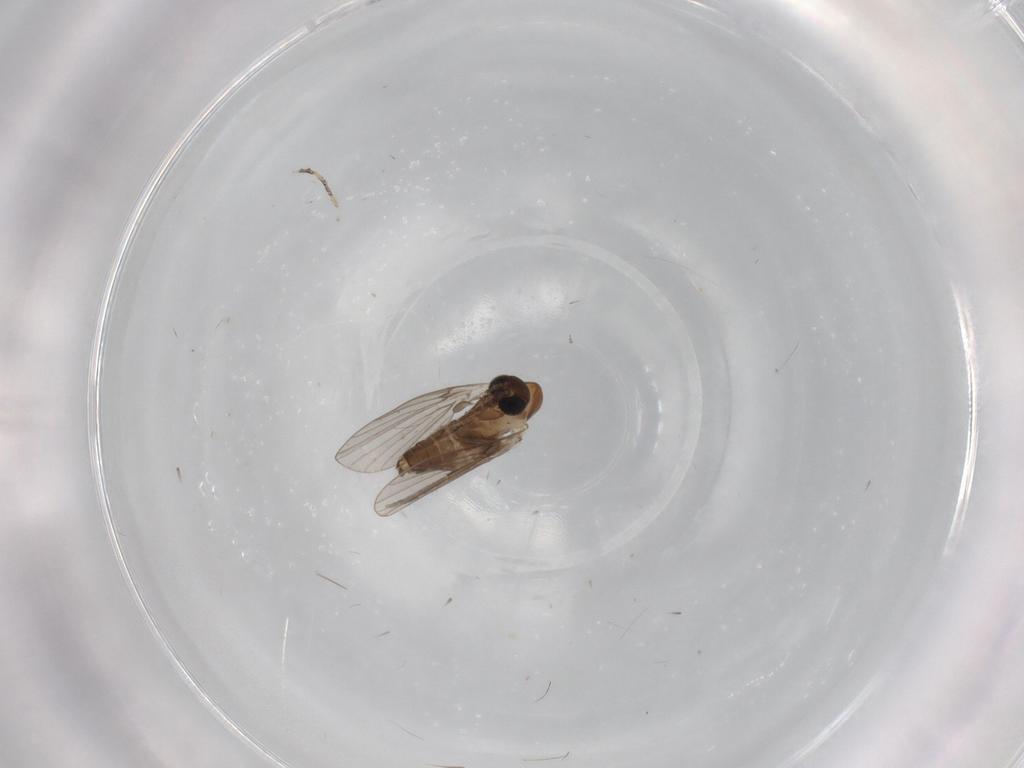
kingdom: Animalia
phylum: Arthropoda
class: Insecta
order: Diptera
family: Psychodidae
